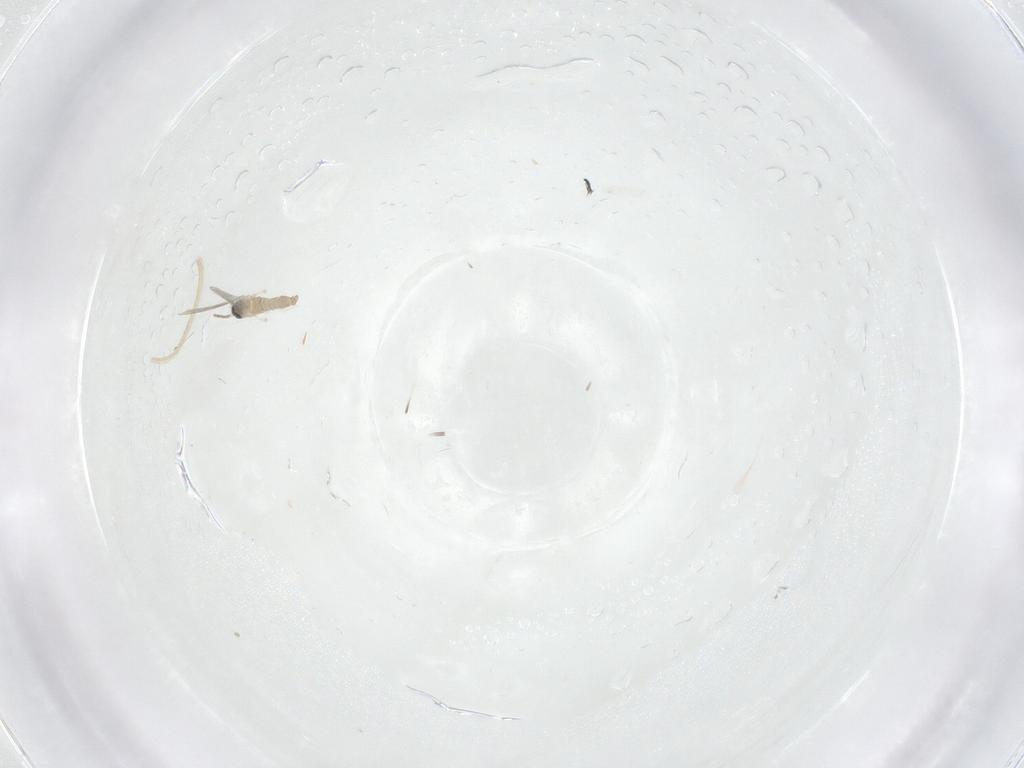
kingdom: Animalia
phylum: Arthropoda
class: Insecta
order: Diptera
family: Cecidomyiidae
